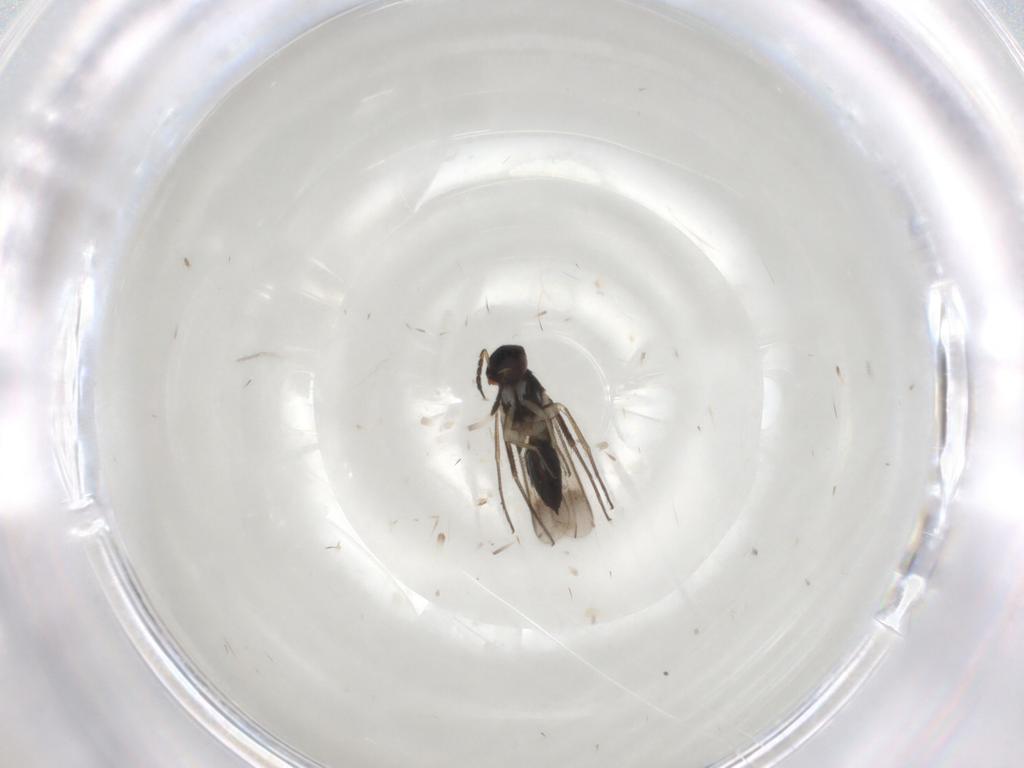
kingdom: Animalia
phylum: Arthropoda
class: Insecta
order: Hymenoptera
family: Eulophidae
